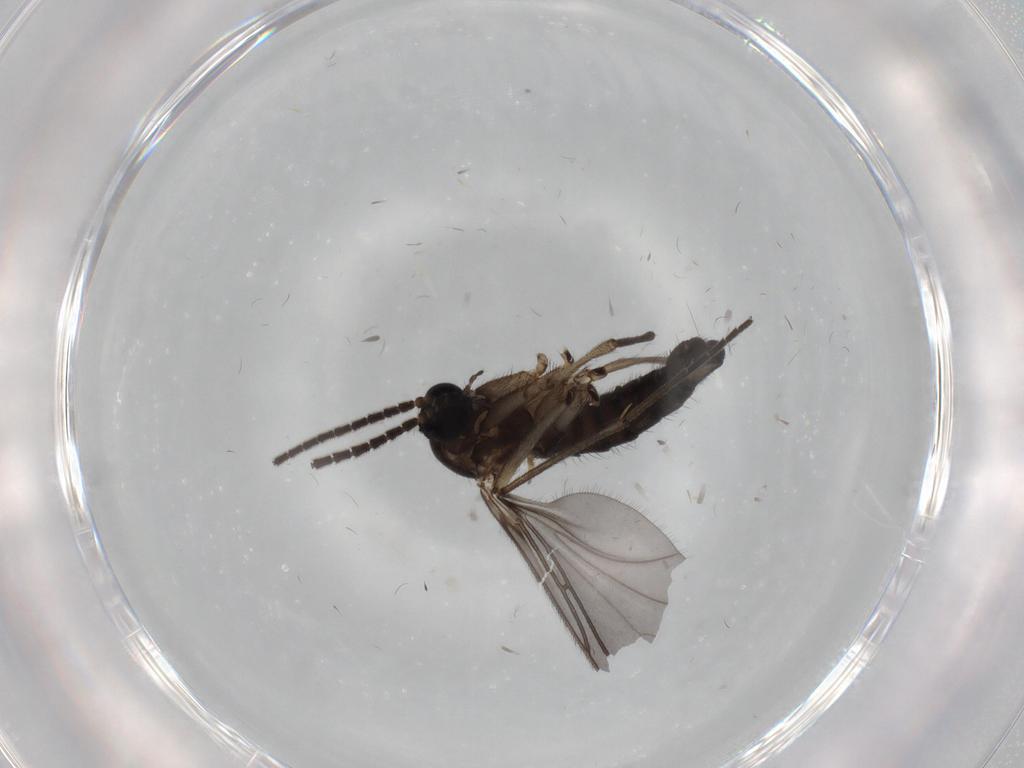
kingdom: Animalia
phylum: Arthropoda
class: Insecta
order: Diptera
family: Sciaridae
